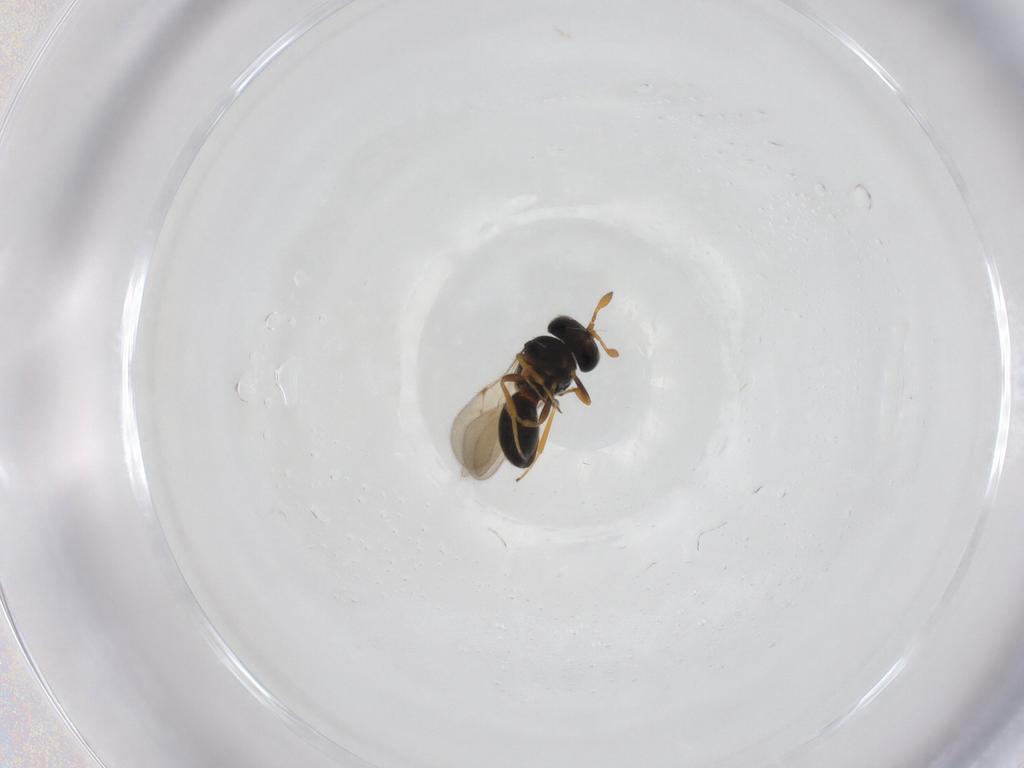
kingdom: Animalia
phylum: Arthropoda
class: Insecta
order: Hymenoptera
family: Scelionidae
